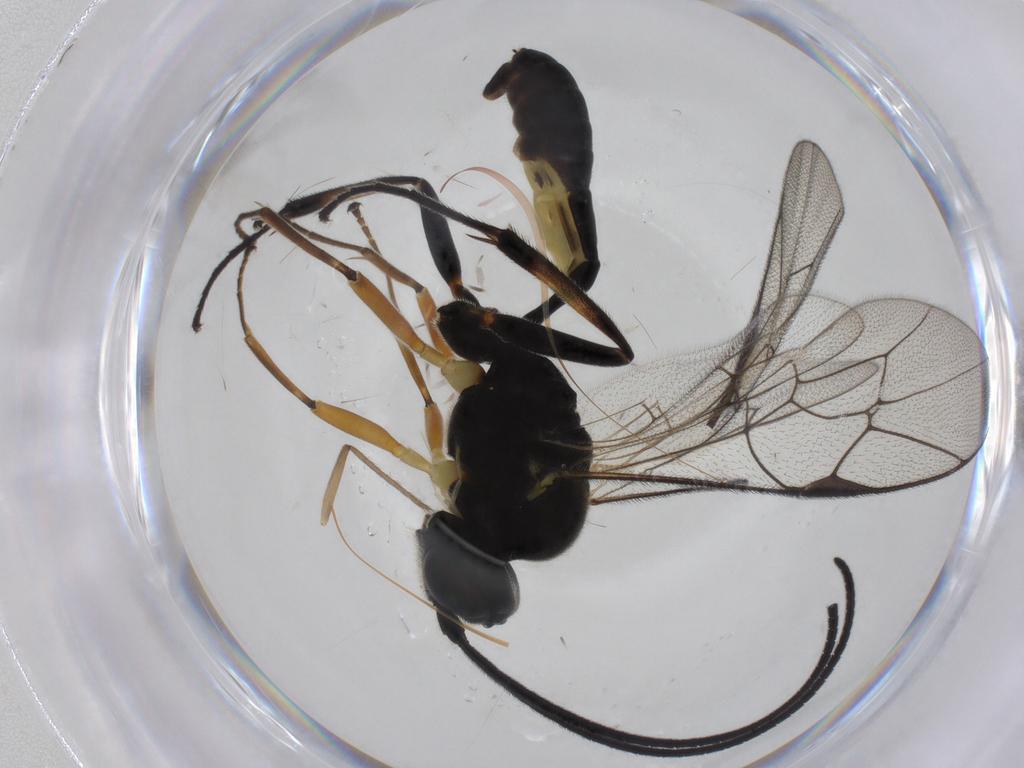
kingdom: Animalia
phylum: Arthropoda
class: Insecta
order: Hymenoptera
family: Ichneumonidae
